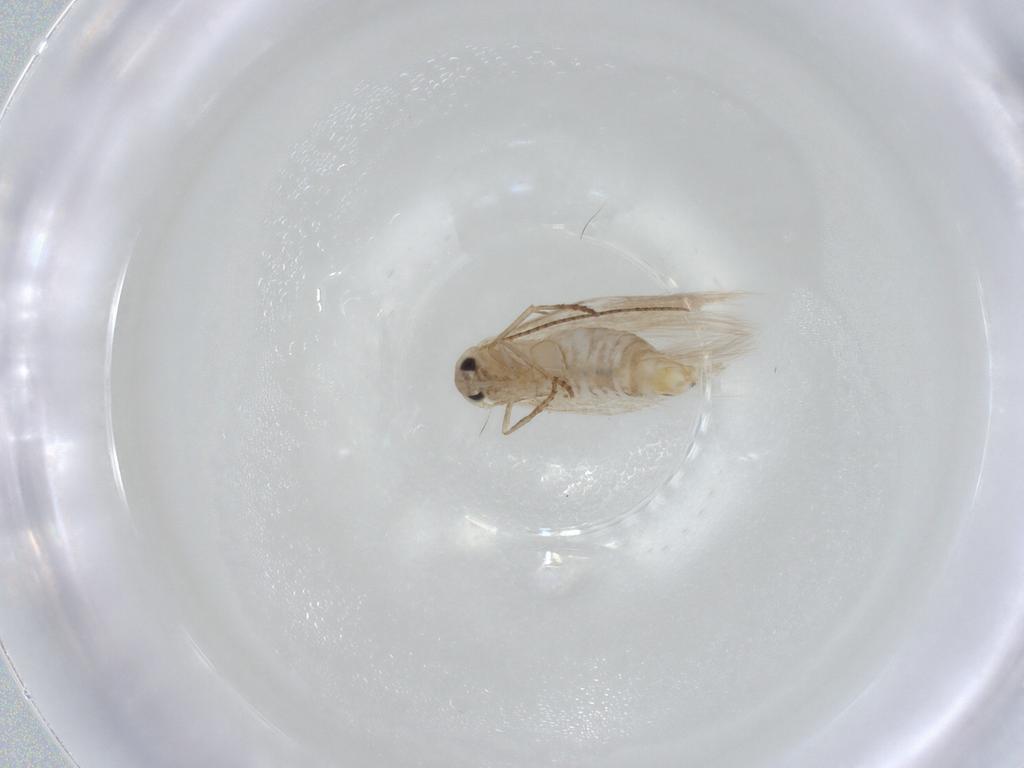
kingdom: Animalia
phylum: Arthropoda
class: Insecta
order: Lepidoptera
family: Bucculatricidae
